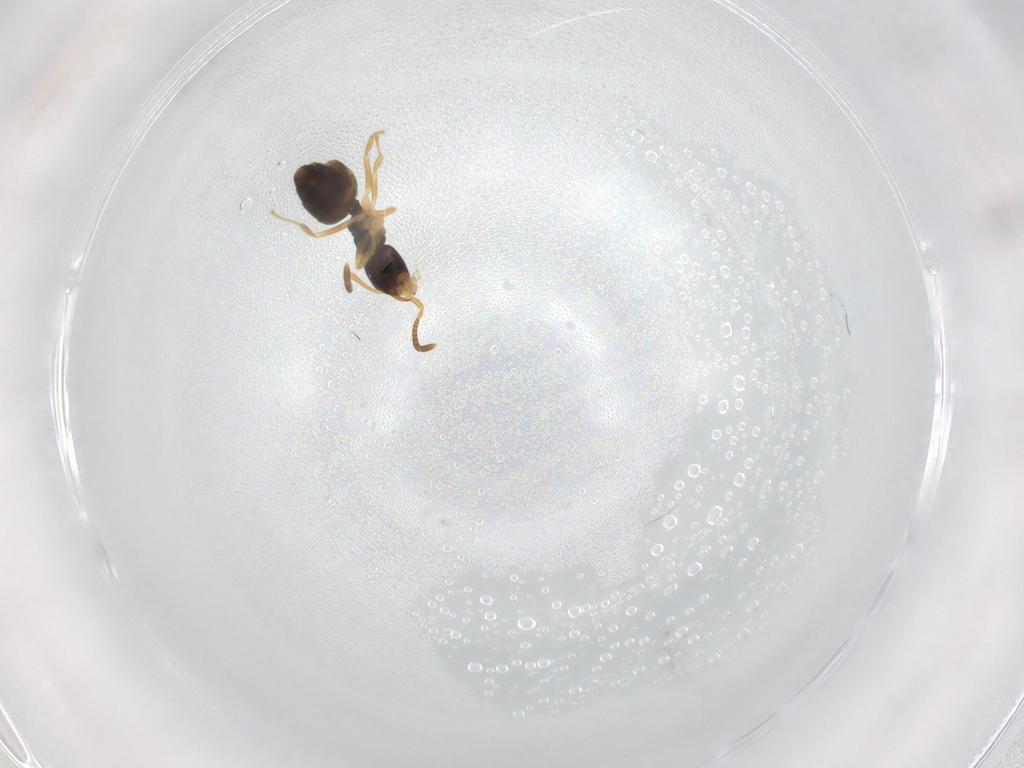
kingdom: Animalia
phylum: Arthropoda
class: Insecta
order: Hymenoptera
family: Formicidae
